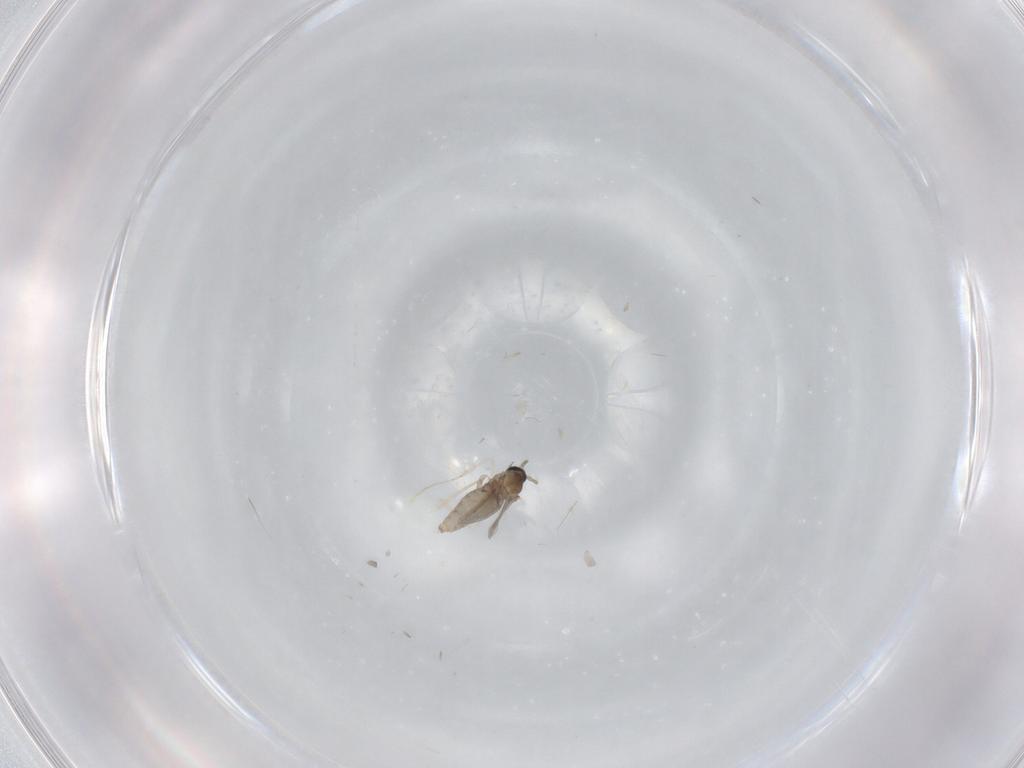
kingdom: Animalia
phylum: Arthropoda
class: Insecta
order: Diptera
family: Cecidomyiidae
